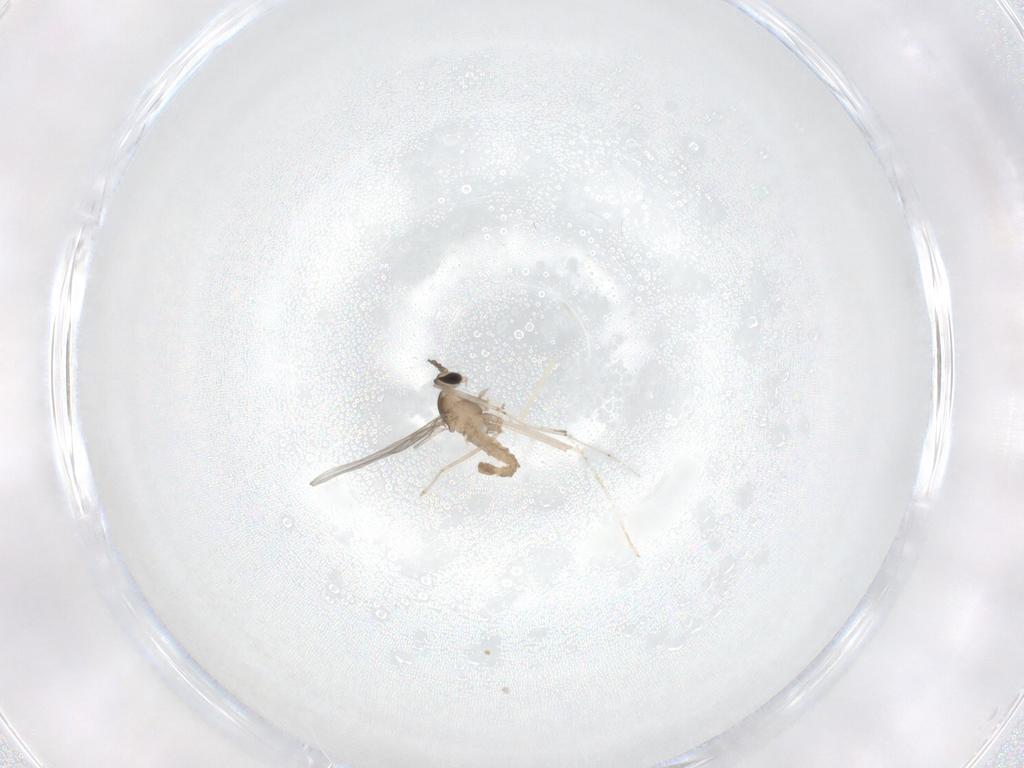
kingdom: Animalia
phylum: Arthropoda
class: Insecta
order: Diptera
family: Cecidomyiidae
